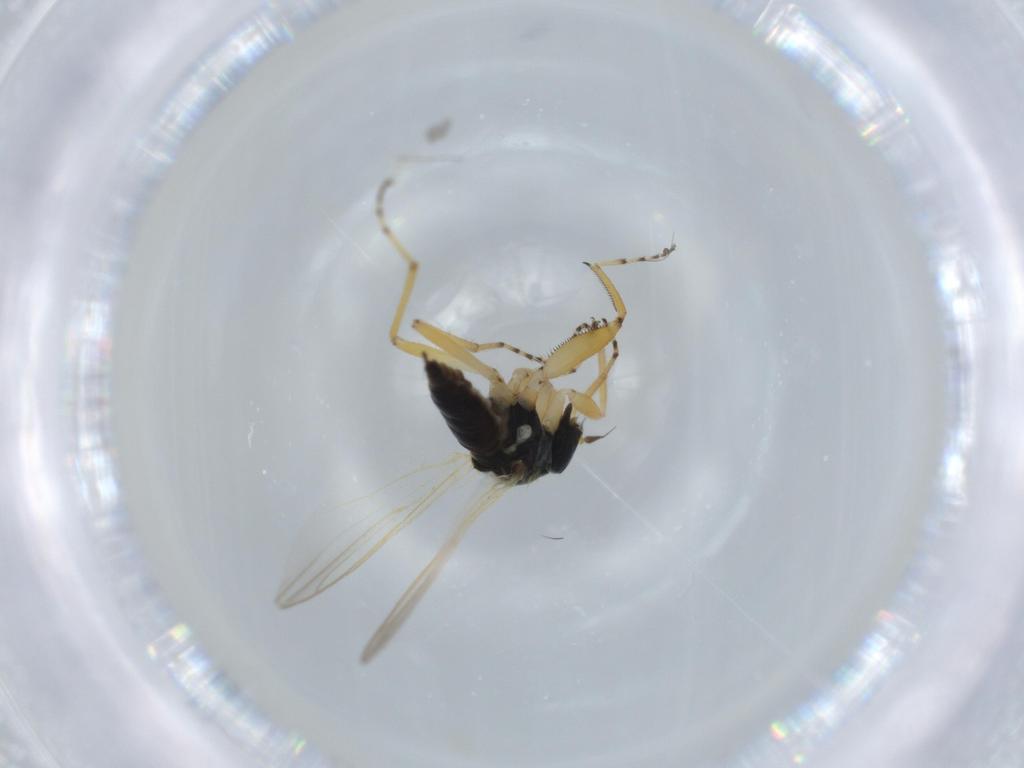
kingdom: Animalia
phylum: Arthropoda
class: Insecta
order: Diptera
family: Hybotidae
